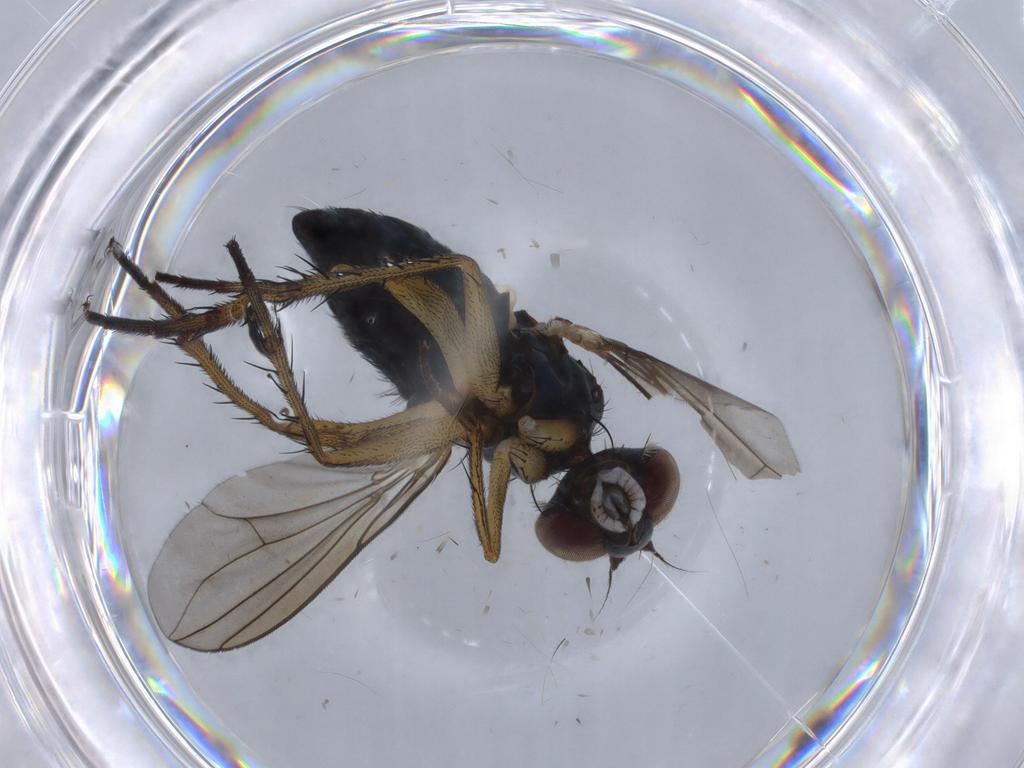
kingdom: Animalia
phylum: Arthropoda
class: Insecta
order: Diptera
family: Dolichopodidae
